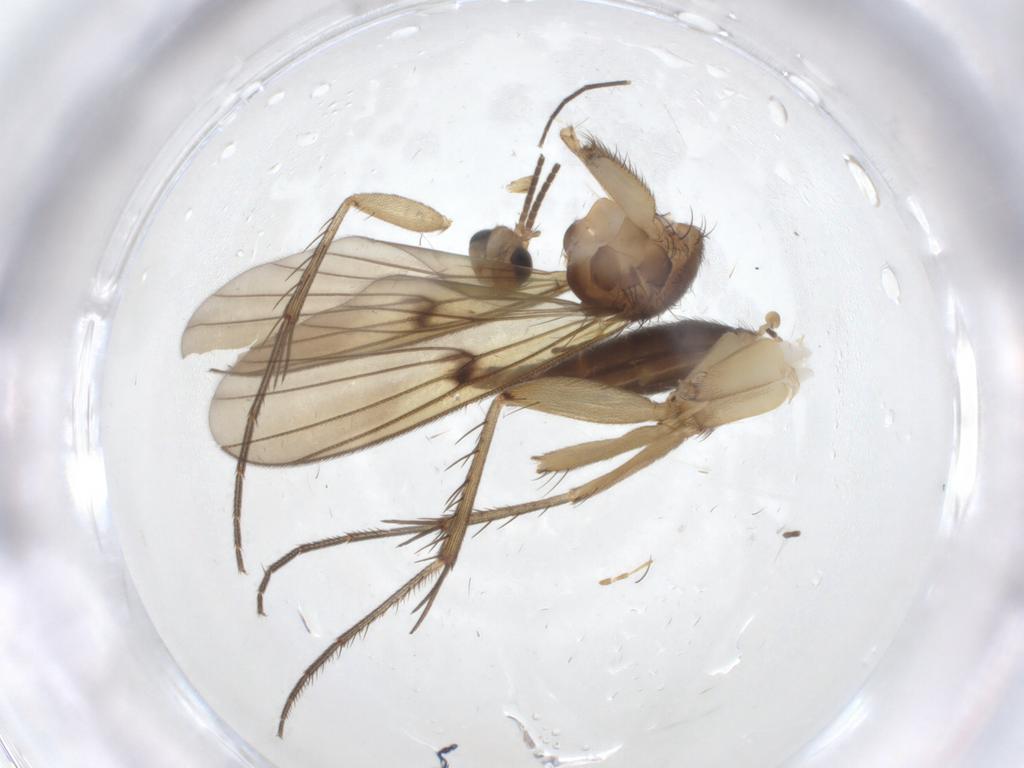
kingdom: Animalia
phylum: Arthropoda
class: Insecta
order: Diptera
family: Mycetophilidae
